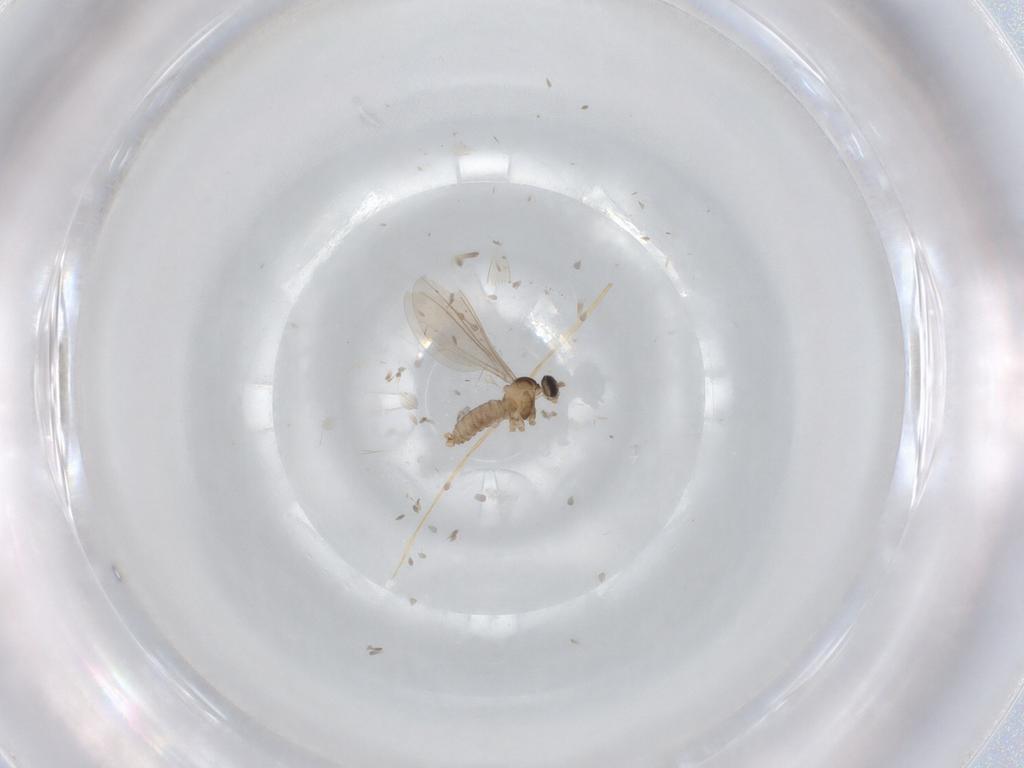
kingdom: Animalia
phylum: Arthropoda
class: Insecta
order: Diptera
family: Cecidomyiidae
